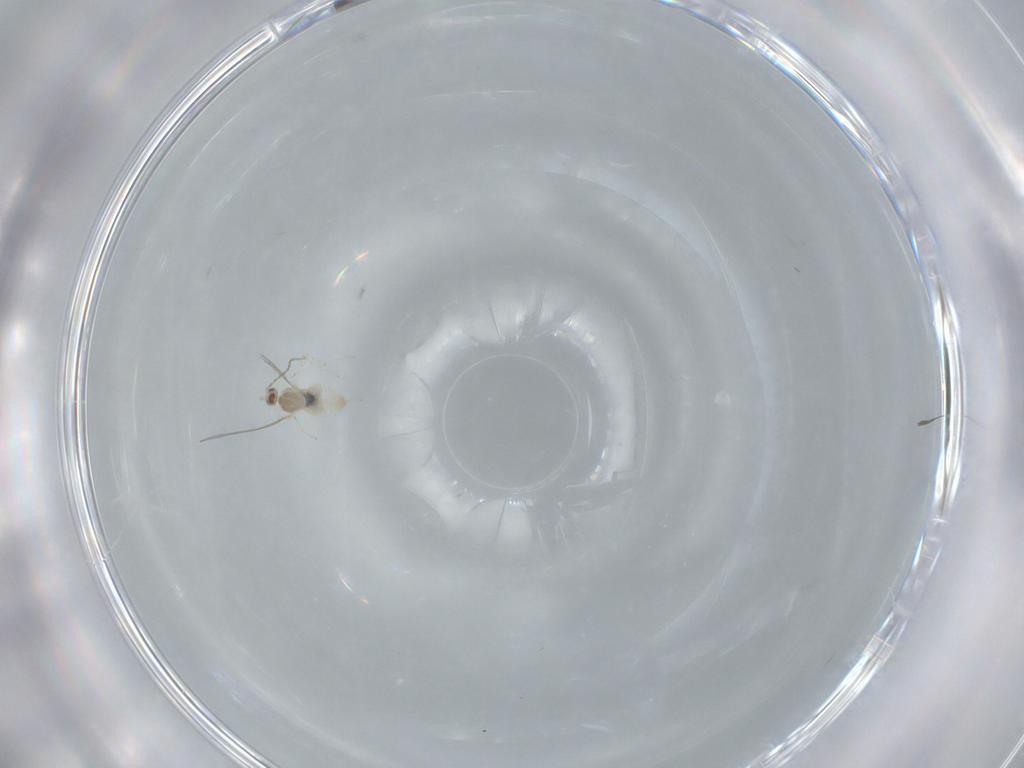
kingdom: Animalia
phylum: Arthropoda
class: Insecta
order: Diptera
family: Cecidomyiidae
